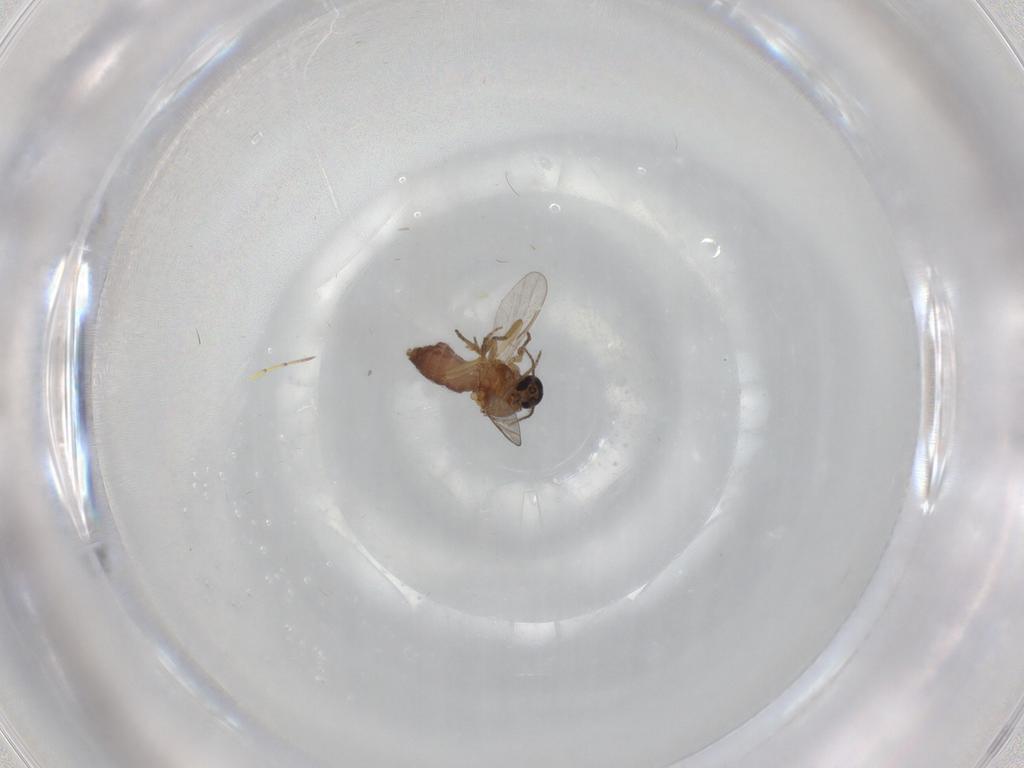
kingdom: Animalia
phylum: Arthropoda
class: Insecta
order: Diptera
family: Ceratopogonidae
